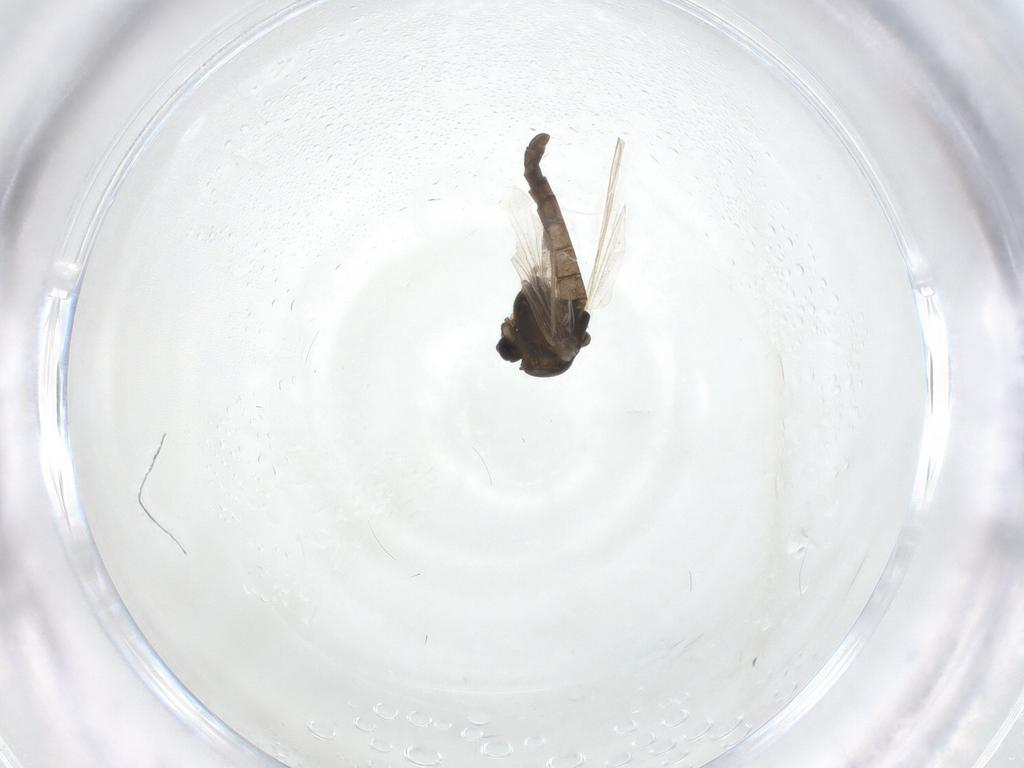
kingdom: Animalia
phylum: Arthropoda
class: Insecta
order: Diptera
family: Chironomidae
